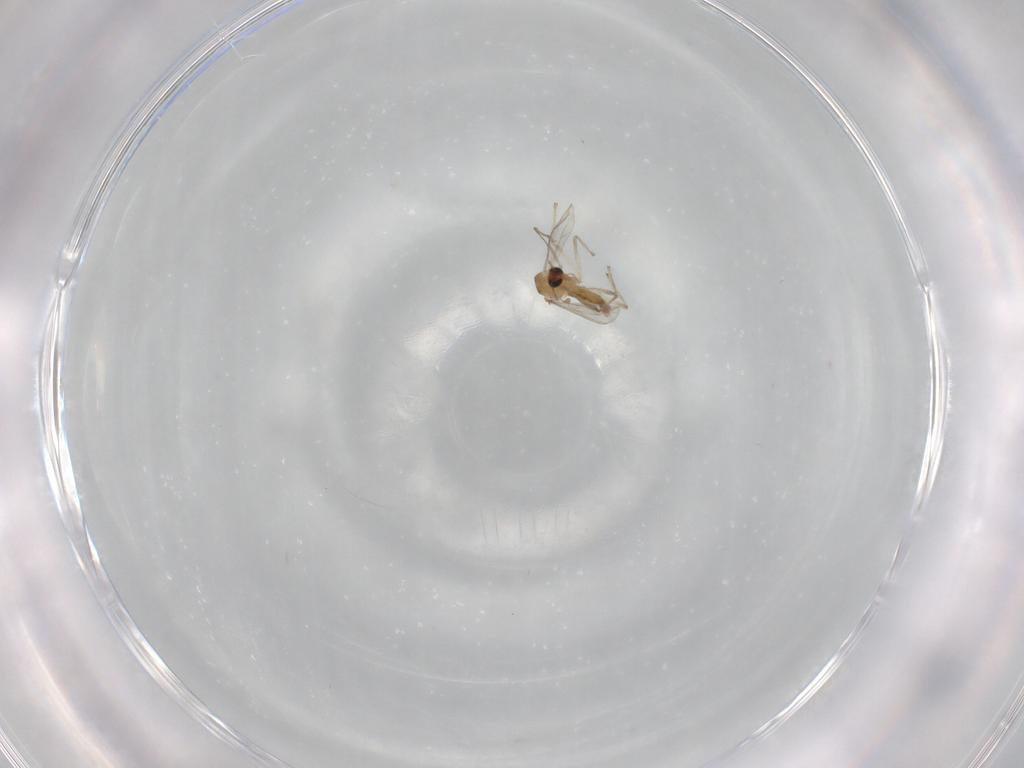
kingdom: Animalia
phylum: Arthropoda
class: Insecta
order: Diptera
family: Chironomidae
